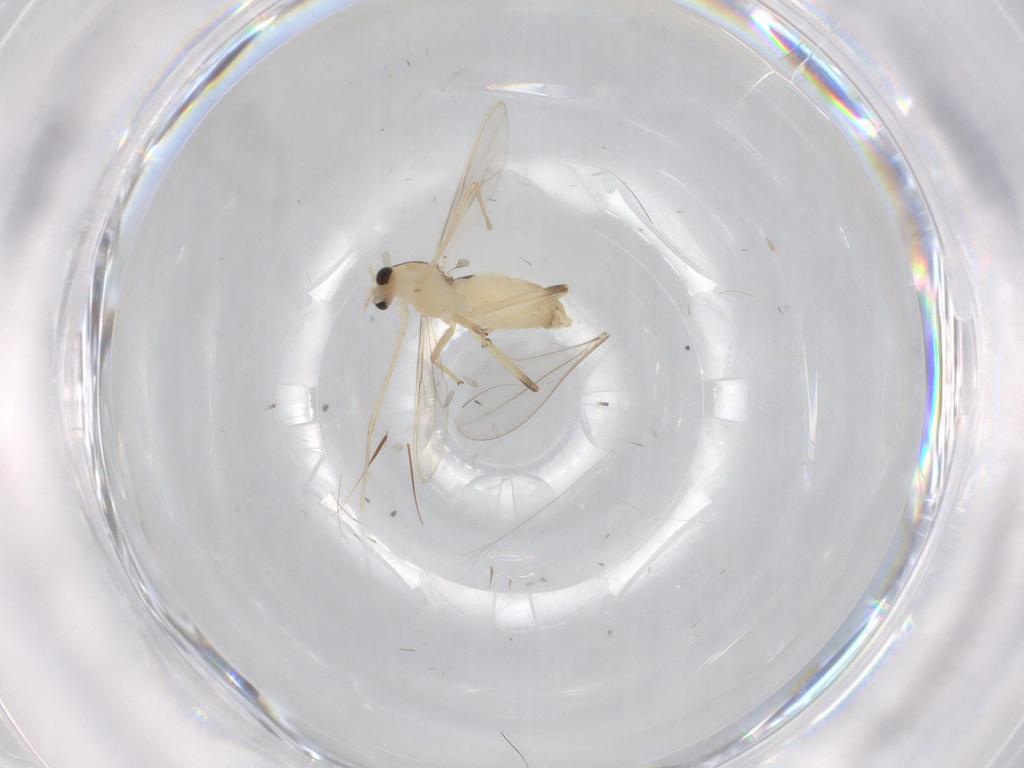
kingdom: Animalia
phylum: Arthropoda
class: Insecta
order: Diptera
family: Chironomidae
